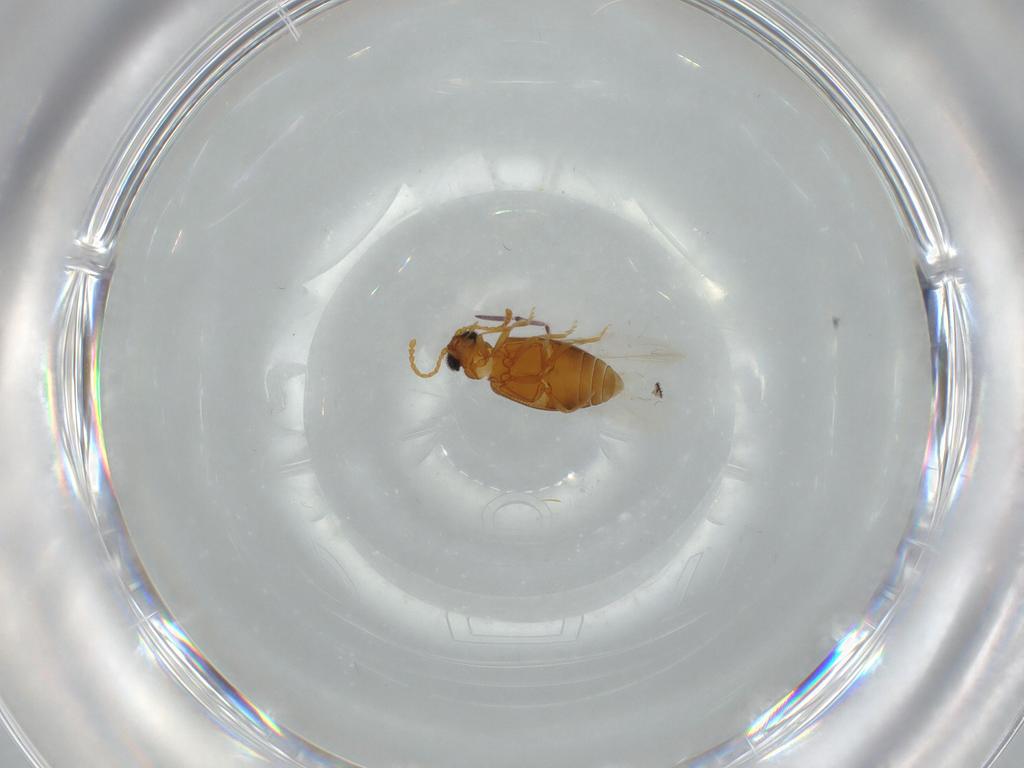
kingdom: Animalia
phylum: Arthropoda
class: Insecta
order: Coleoptera
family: Aderidae
